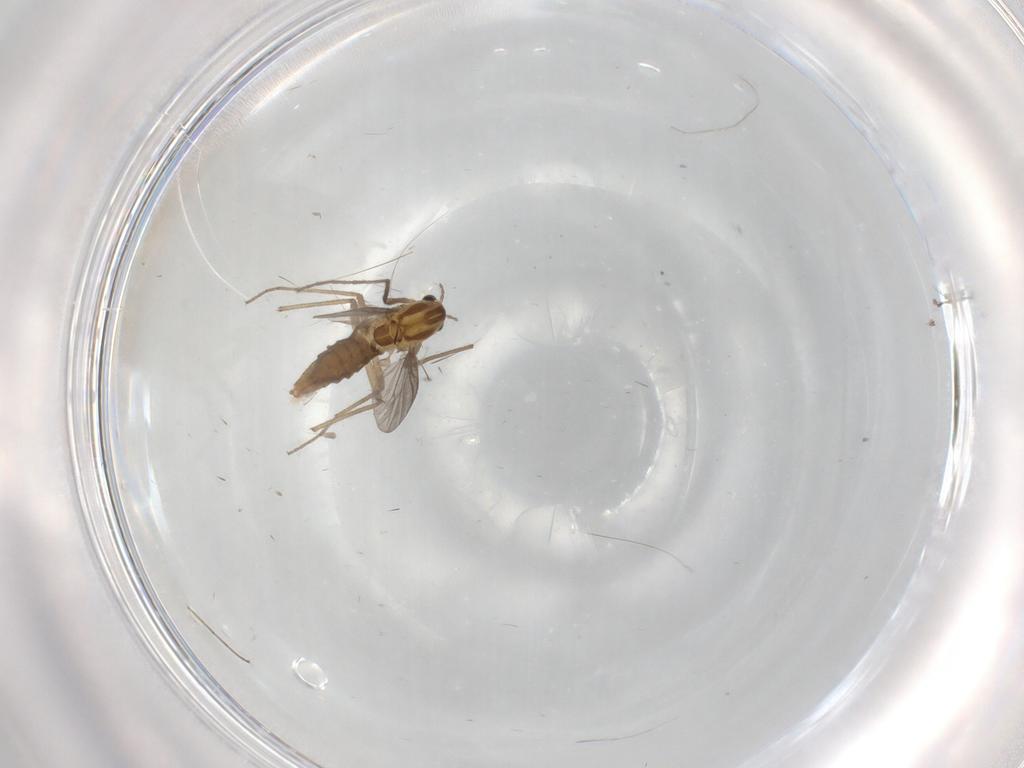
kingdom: Animalia
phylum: Arthropoda
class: Insecta
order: Diptera
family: Chironomidae
